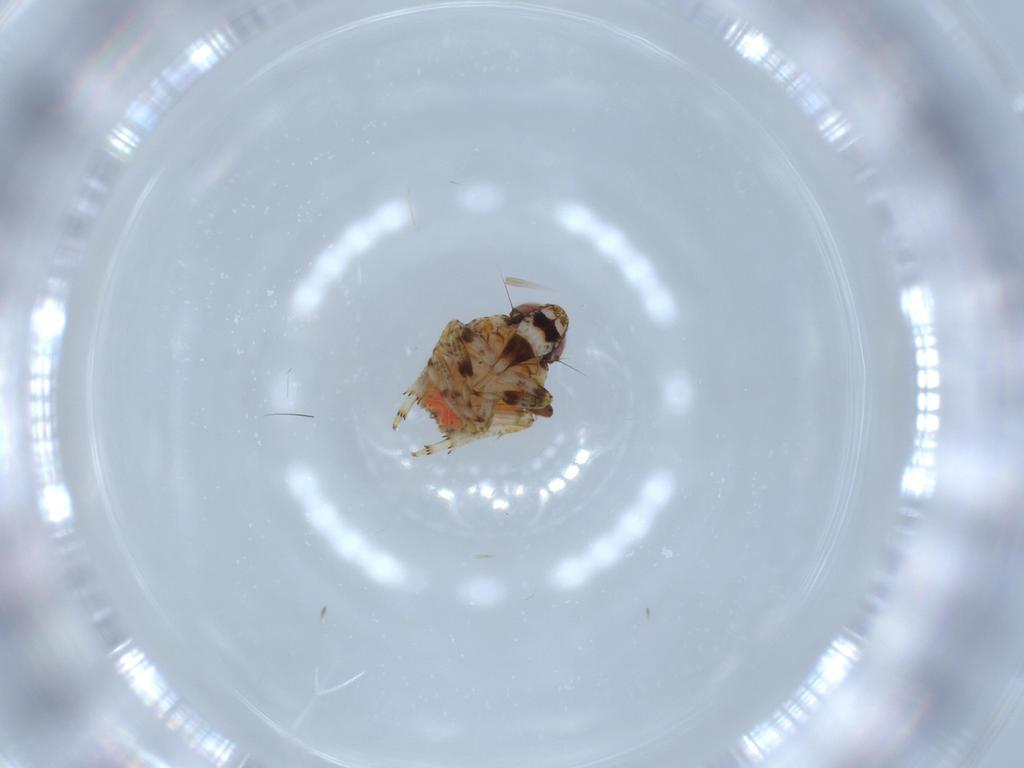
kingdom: Animalia
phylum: Arthropoda
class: Insecta
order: Hemiptera
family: Issidae
